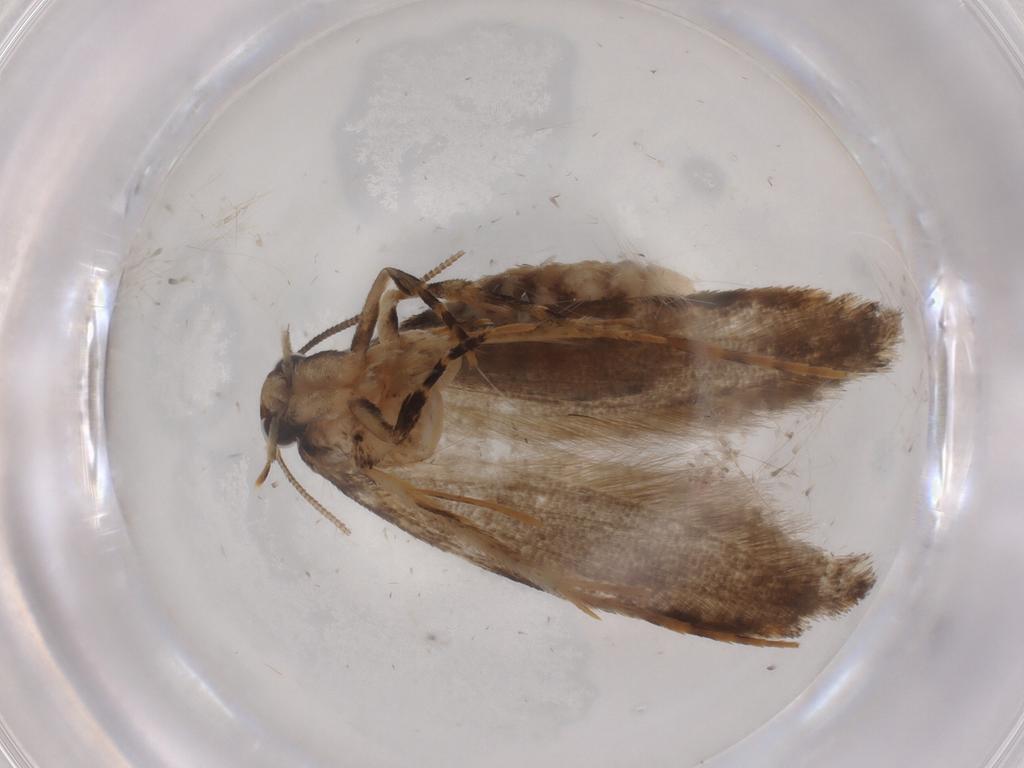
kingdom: Animalia
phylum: Arthropoda
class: Insecta
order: Lepidoptera
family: Tineidae
